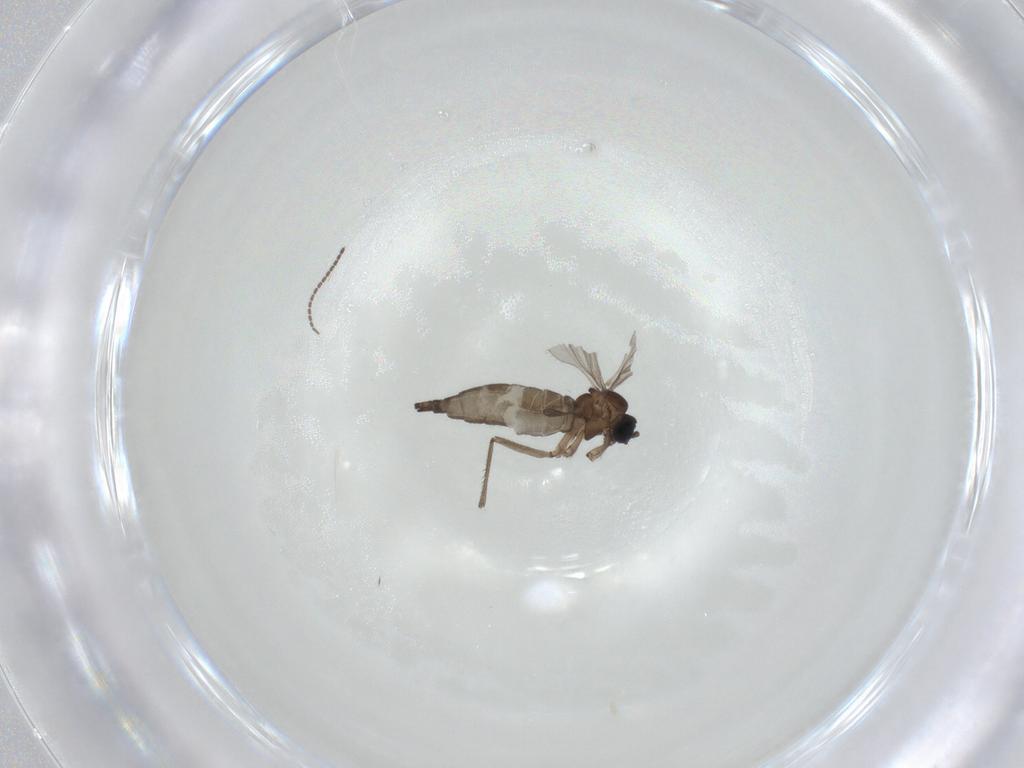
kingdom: Animalia
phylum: Arthropoda
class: Insecta
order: Diptera
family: Sciaridae
